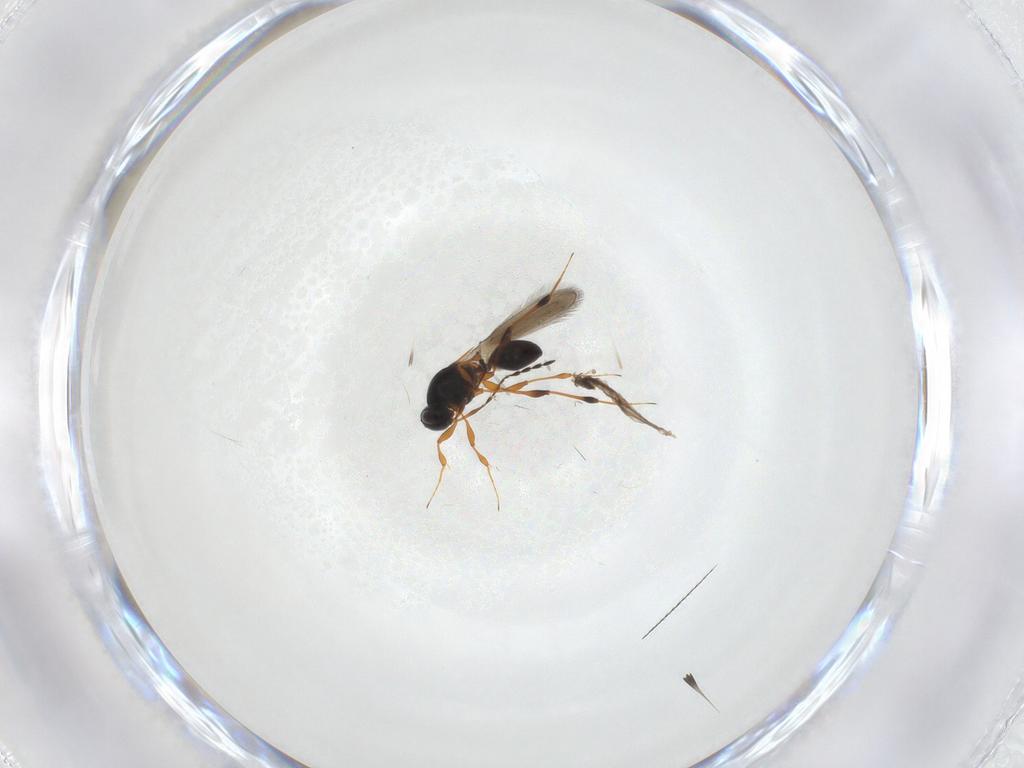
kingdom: Animalia
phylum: Arthropoda
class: Insecta
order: Hymenoptera
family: Platygastridae
